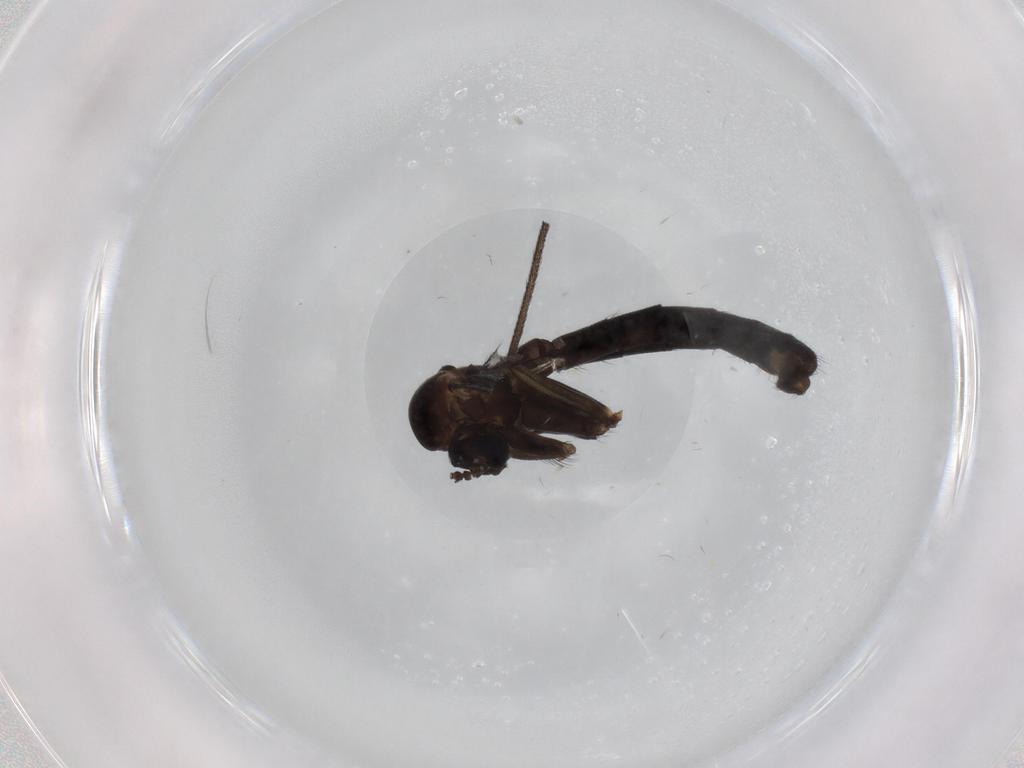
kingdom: Animalia
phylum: Arthropoda
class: Insecta
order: Diptera
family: Ditomyiidae
